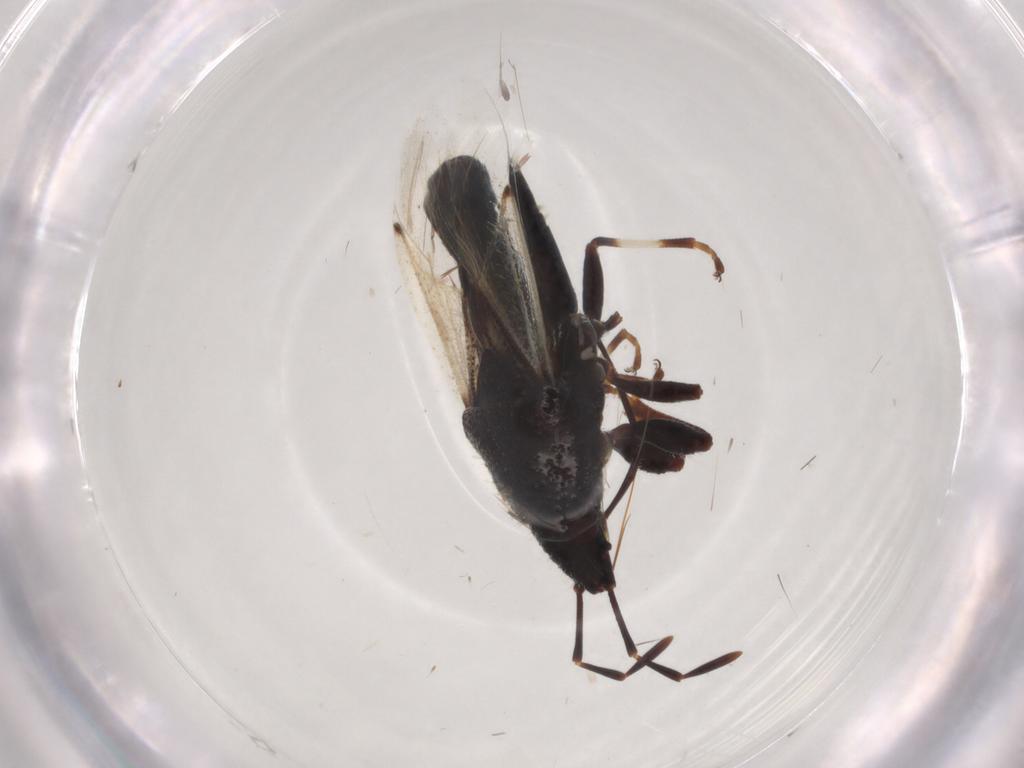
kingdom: Animalia
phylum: Arthropoda
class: Insecta
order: Hemiptera
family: Oxycarenidae
